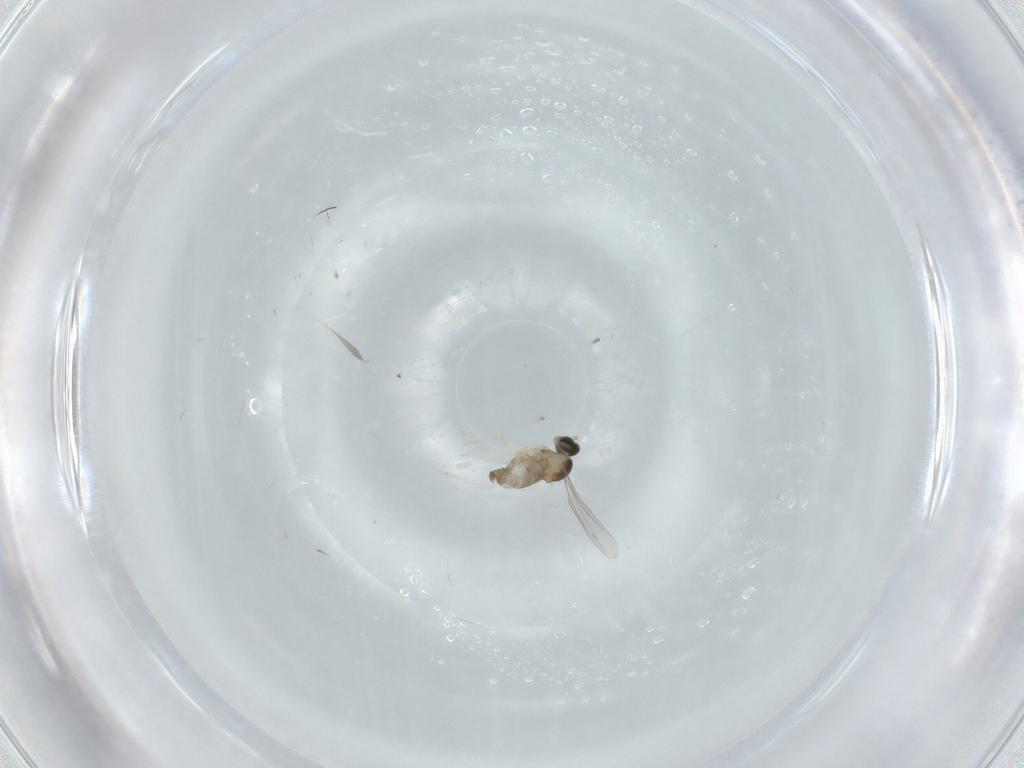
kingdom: Animalia
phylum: Arthropoda
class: Insecta
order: Diptera
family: Cecidomyiidae
